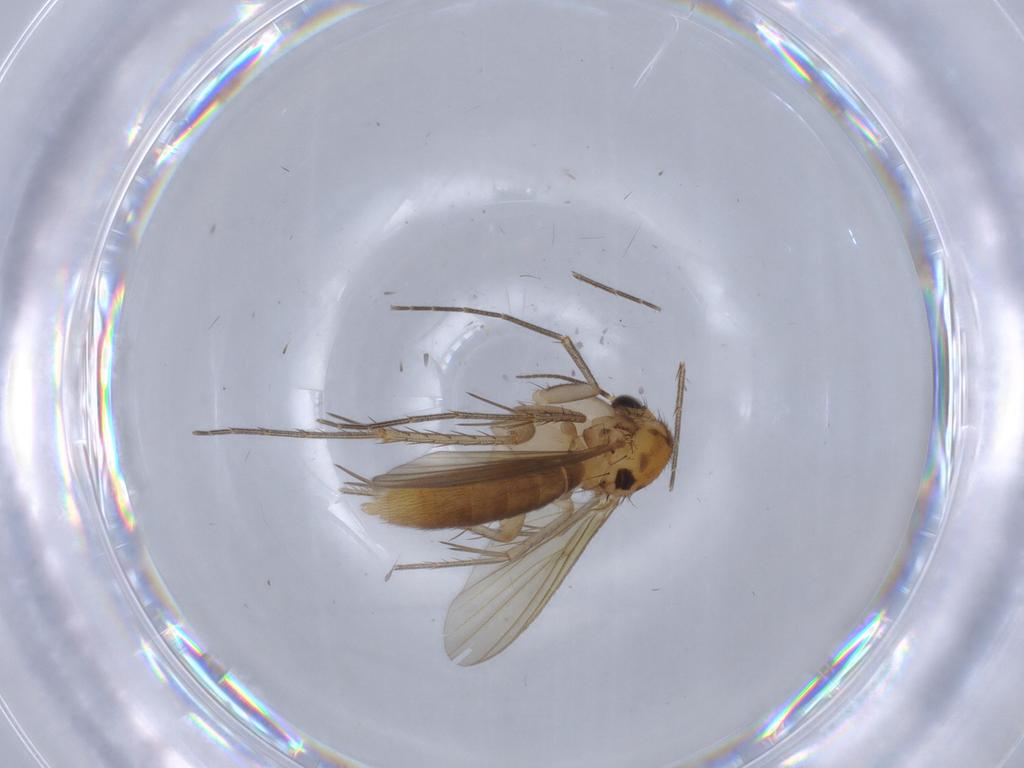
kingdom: Animalia
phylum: Arthropoda
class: Insecta
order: Diptera
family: Mycetophilidae
